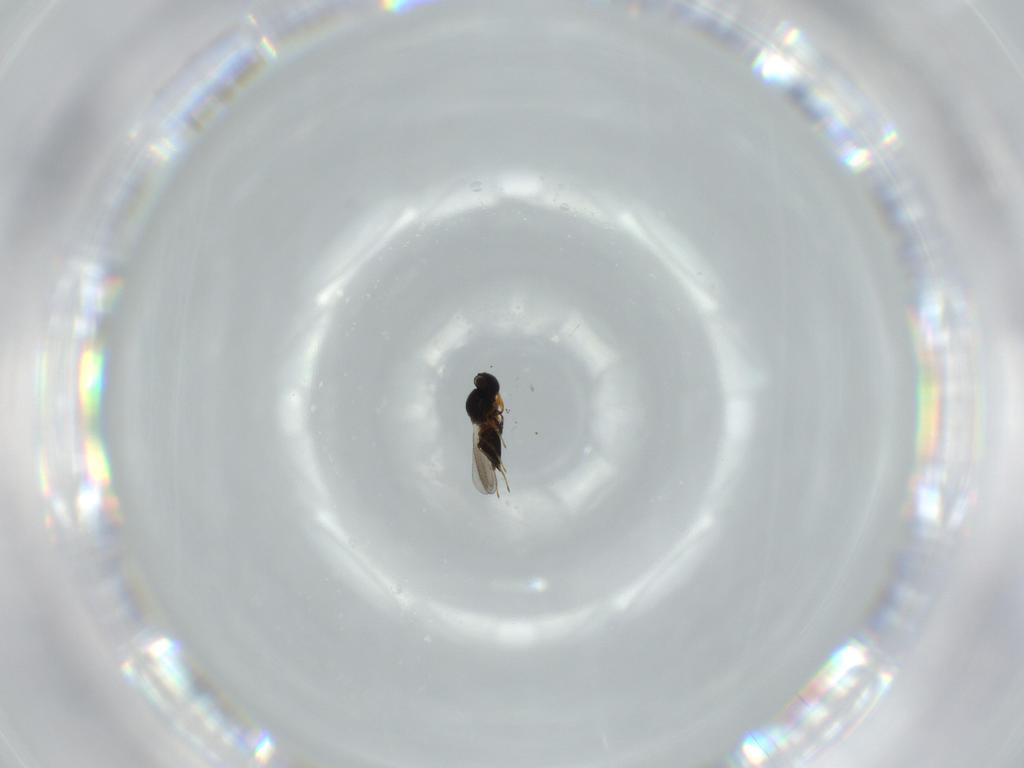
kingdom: Animalia
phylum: Arthropoda
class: Insecta
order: Hymenoptera
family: Platygastridae
